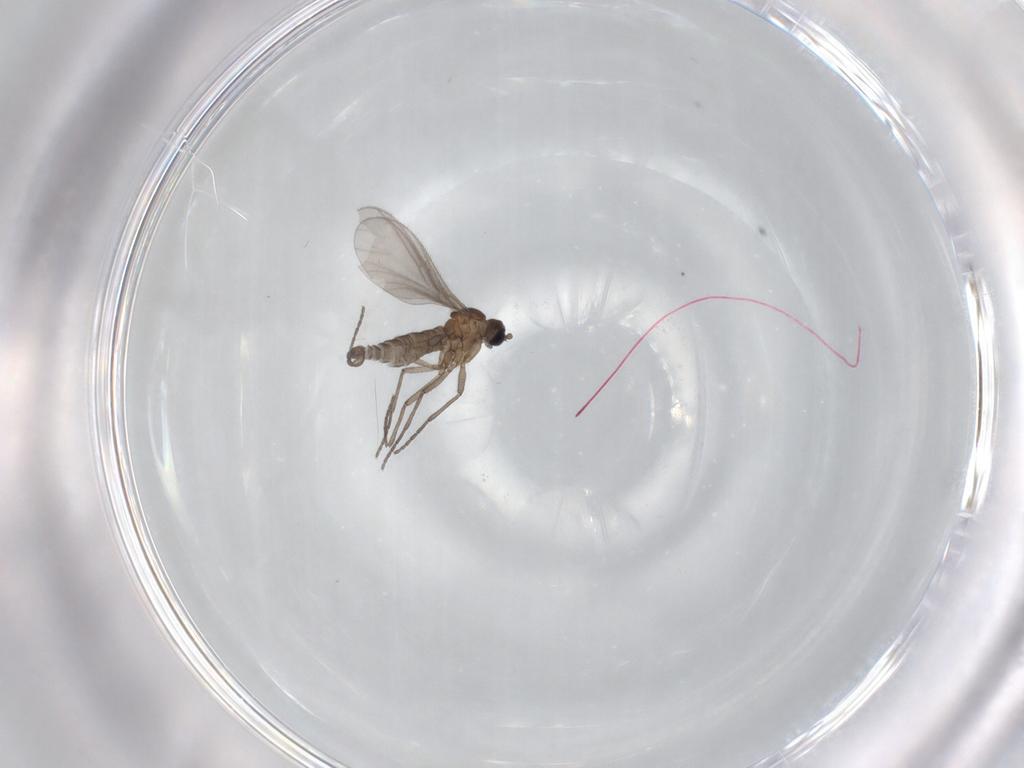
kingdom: Animalia
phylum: Arthropoda
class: Insecta
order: Diptera
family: Sciaridae
